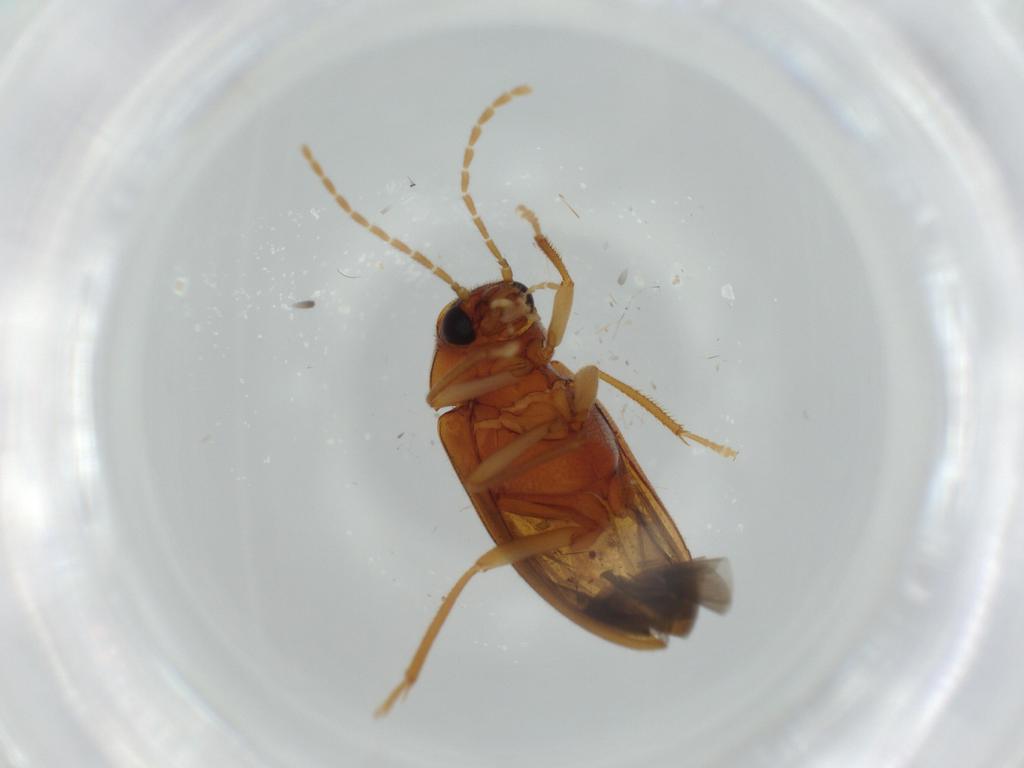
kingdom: Animalia
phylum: Arthropoda
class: Insecta
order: Coleoptera
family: Ptilodactylidae
